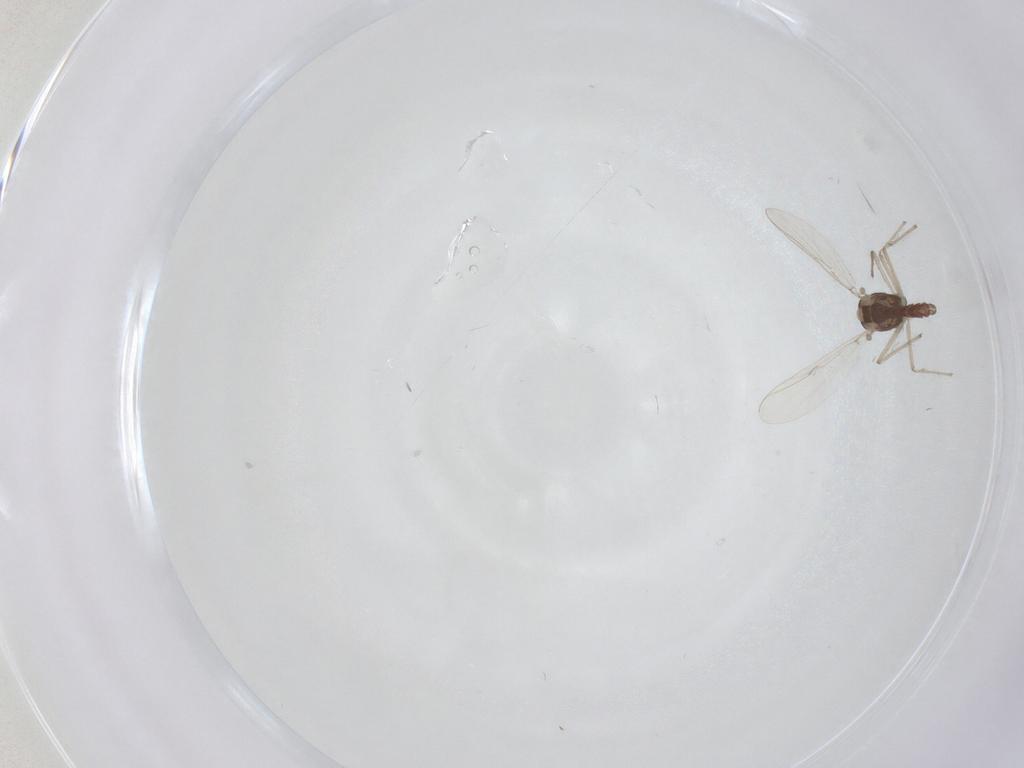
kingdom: Animalia
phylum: Arthropoda
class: Insecta
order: Diptera
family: Chironomidae
